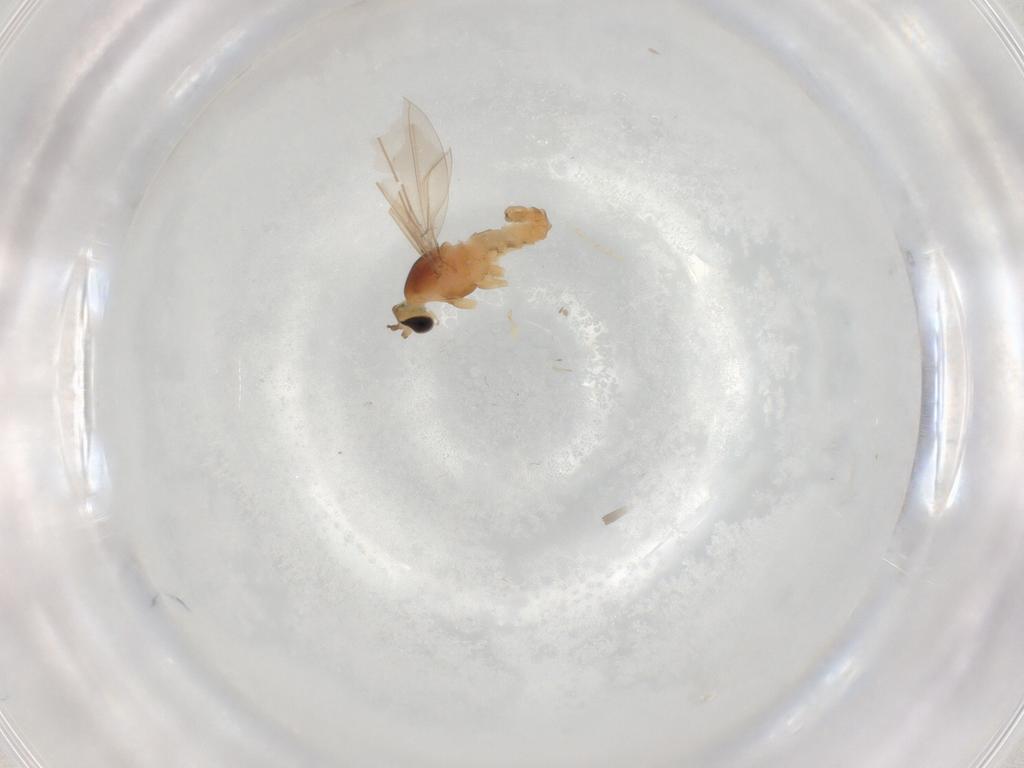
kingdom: Animalia
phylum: Arthropoda
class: Insecta
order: Diptera
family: Cecidomyiidae
